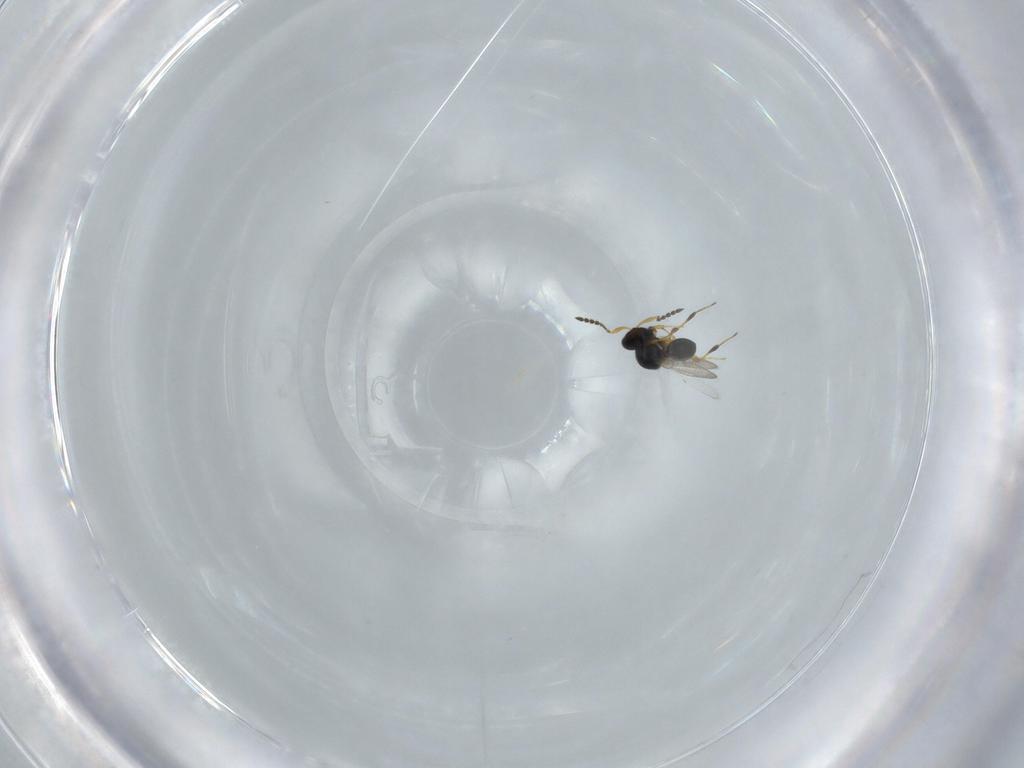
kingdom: Animalia
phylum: Arthropoda
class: Insecta
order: Hymenoptera
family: Platygastridae
